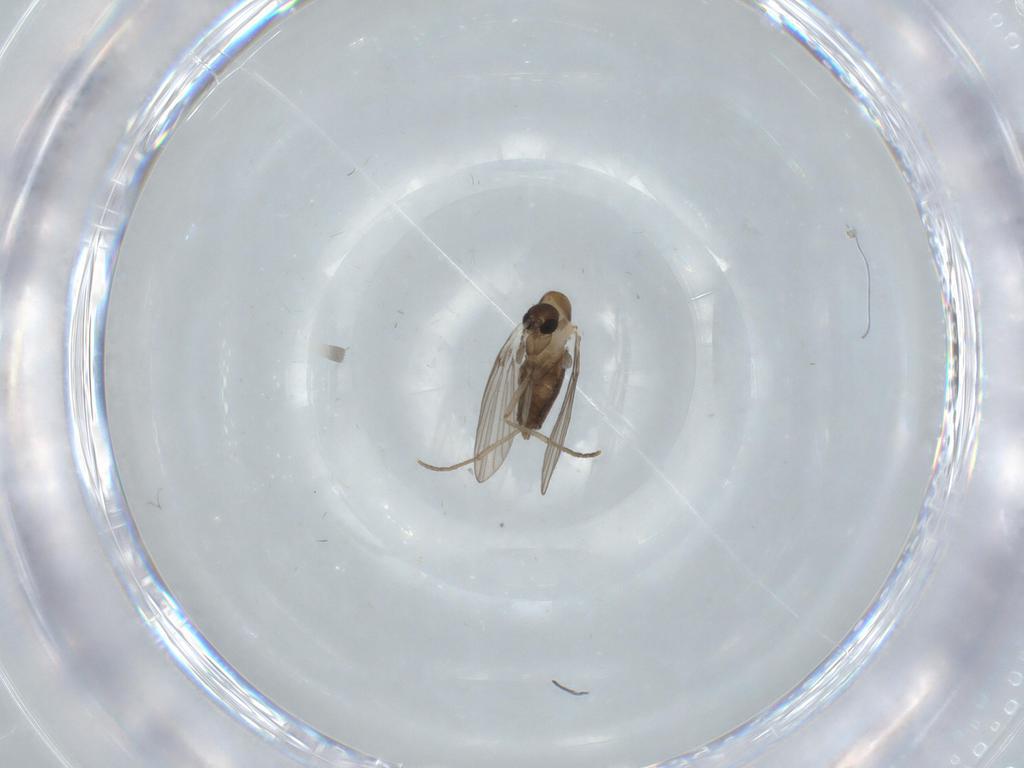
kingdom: Animalia
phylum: Arthropoda
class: Insecta
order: Diptera
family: Psychodidae
